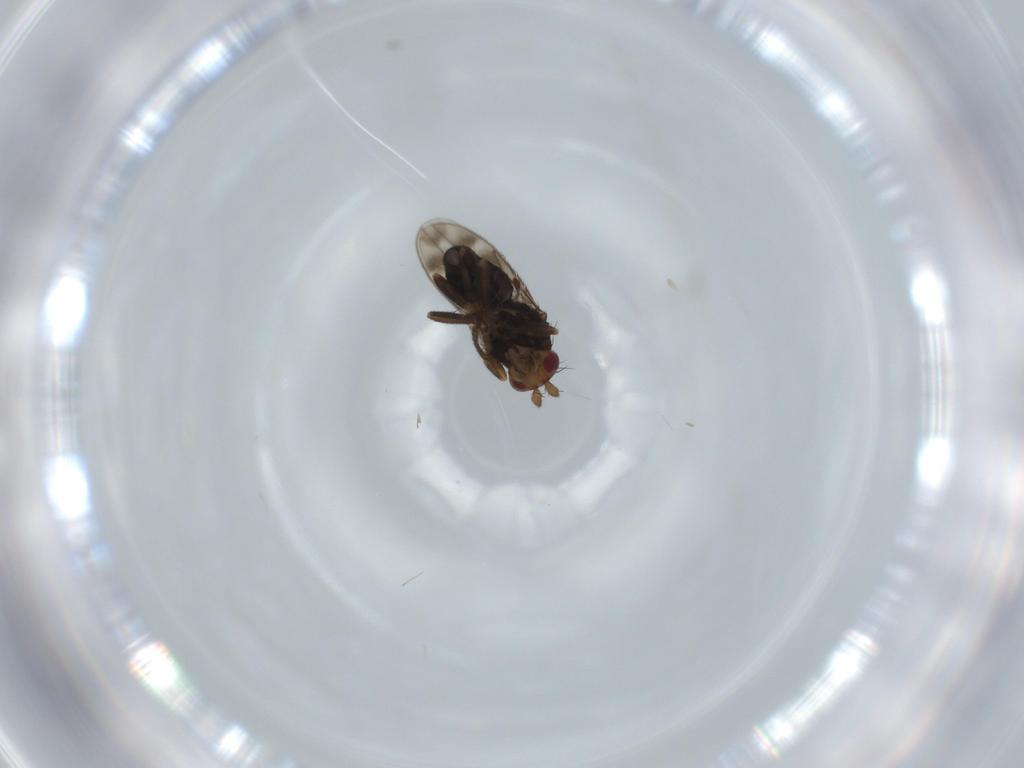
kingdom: Animalia
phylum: Arthropoda
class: Insecta
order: Diptera
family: Sphaeroceridae
